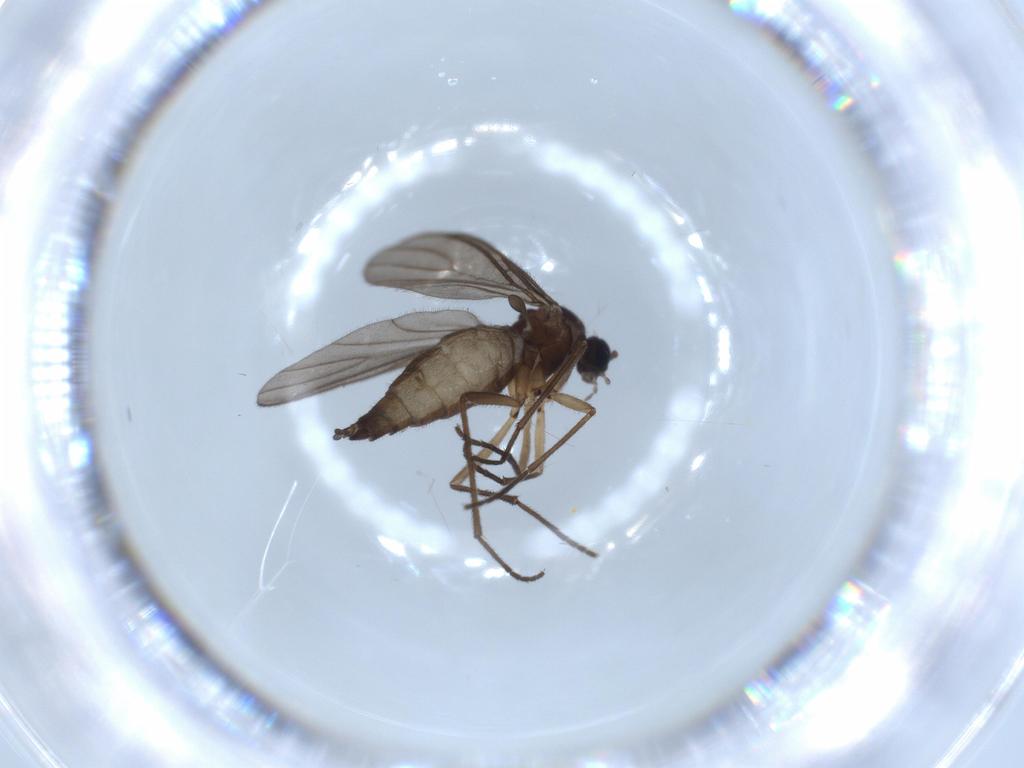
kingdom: Animalia
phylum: Arthropoda
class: Insecta
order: Diptera
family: Sciaridae
